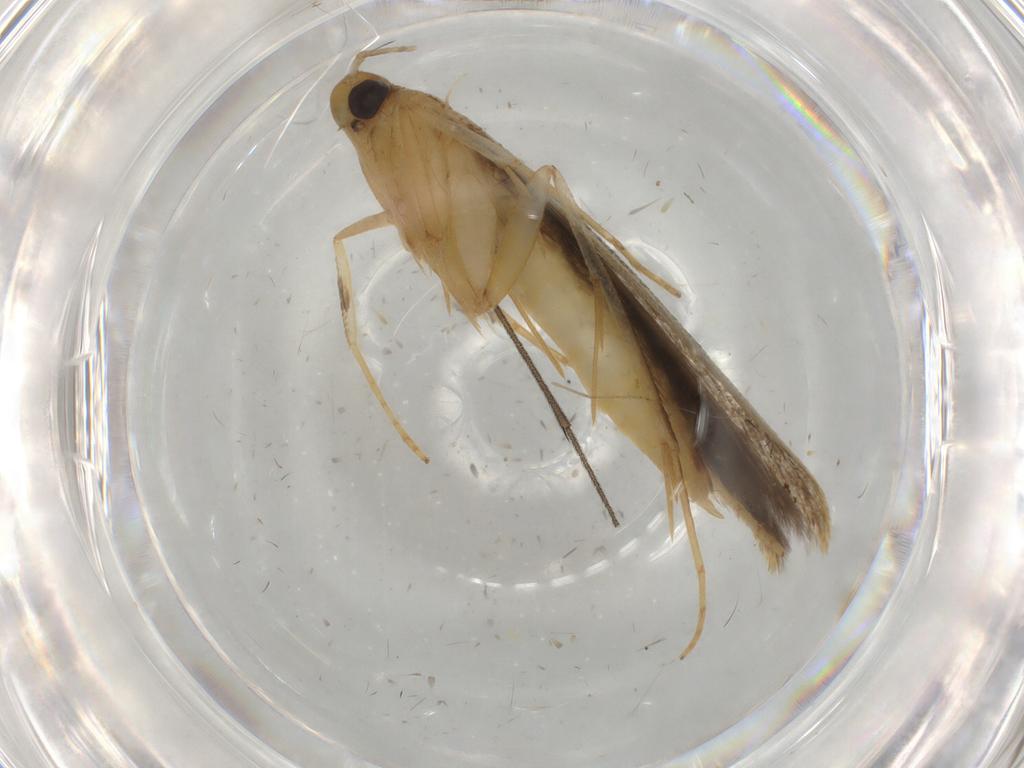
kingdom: Animalia
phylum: Arthropoda
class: Insecta
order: Lepidoptera
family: Pterolonchidae
